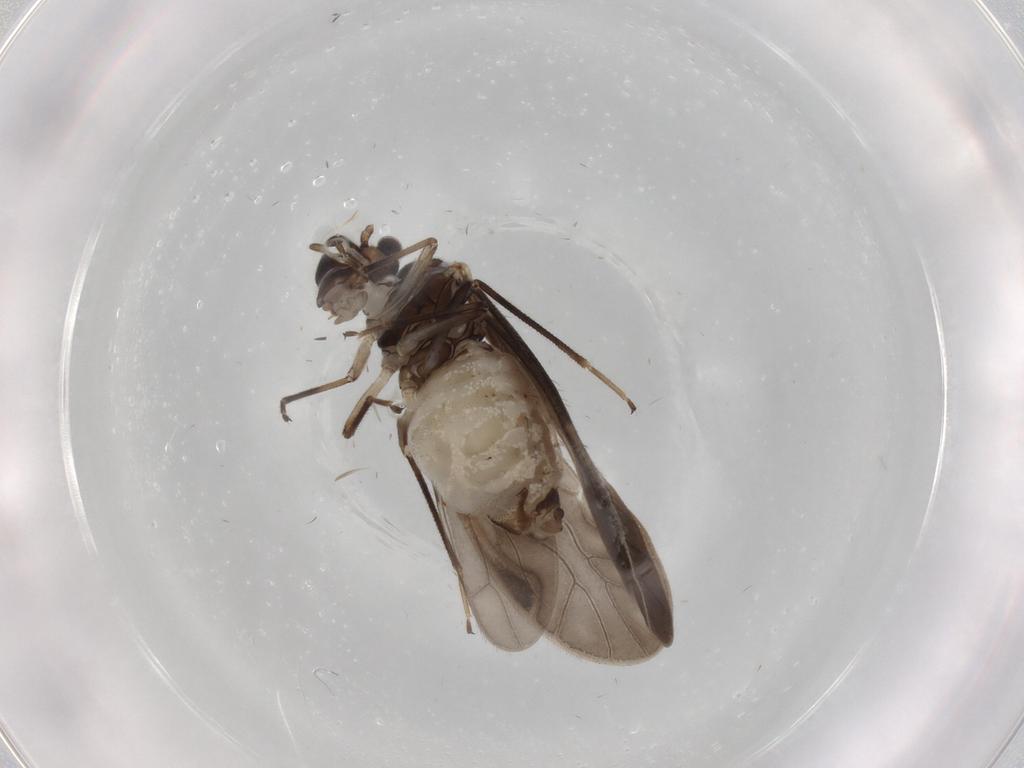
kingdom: Animalia
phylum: Arthropoda
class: Insecta
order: Psocodea
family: Caeciliusidae
